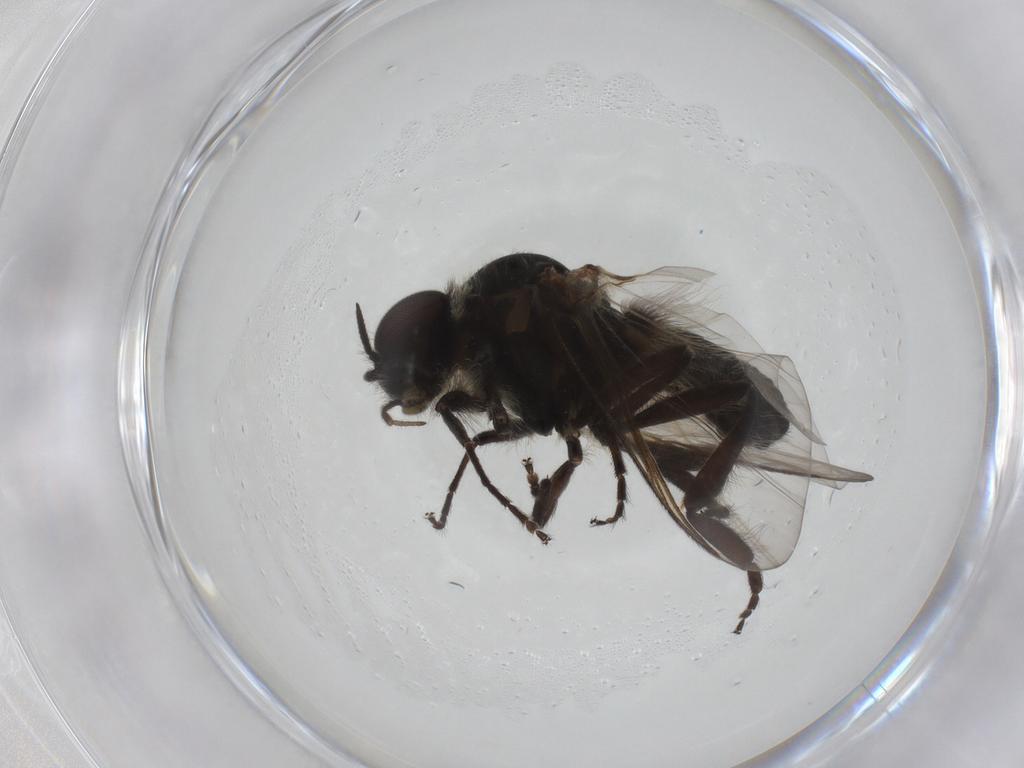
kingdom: Animalia
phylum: Arthropoda
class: Insecta
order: Diptera
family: Simuliidae
